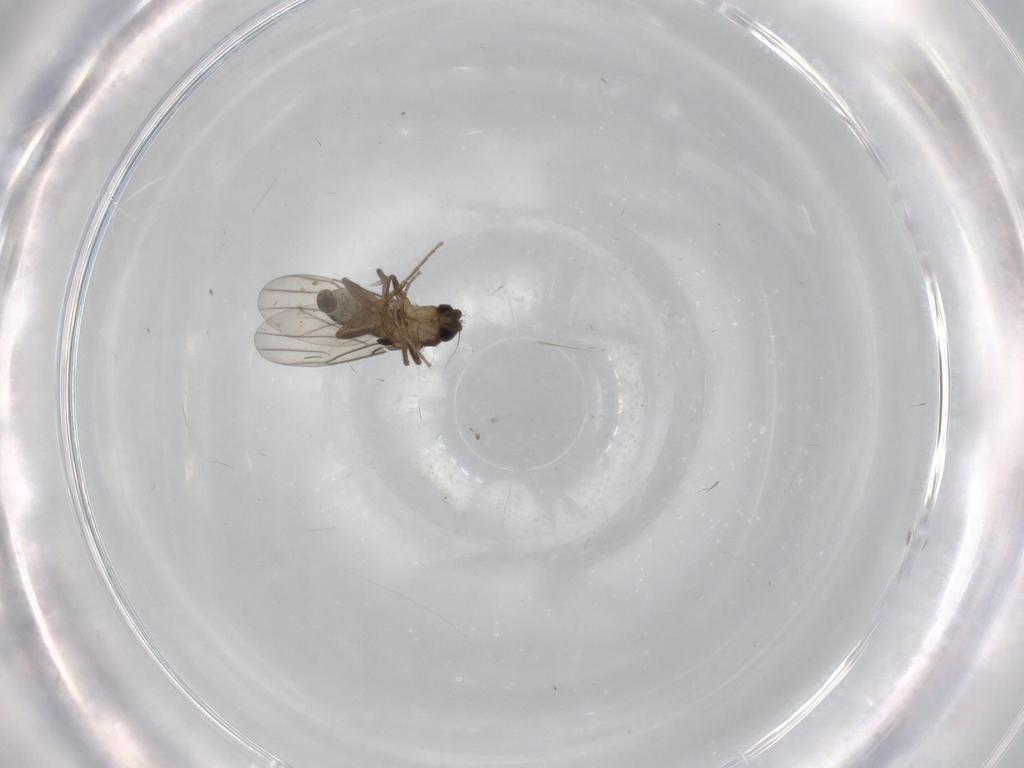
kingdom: Animalia
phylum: Arthropoda
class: Insecta
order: Diptera
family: Phoridae
